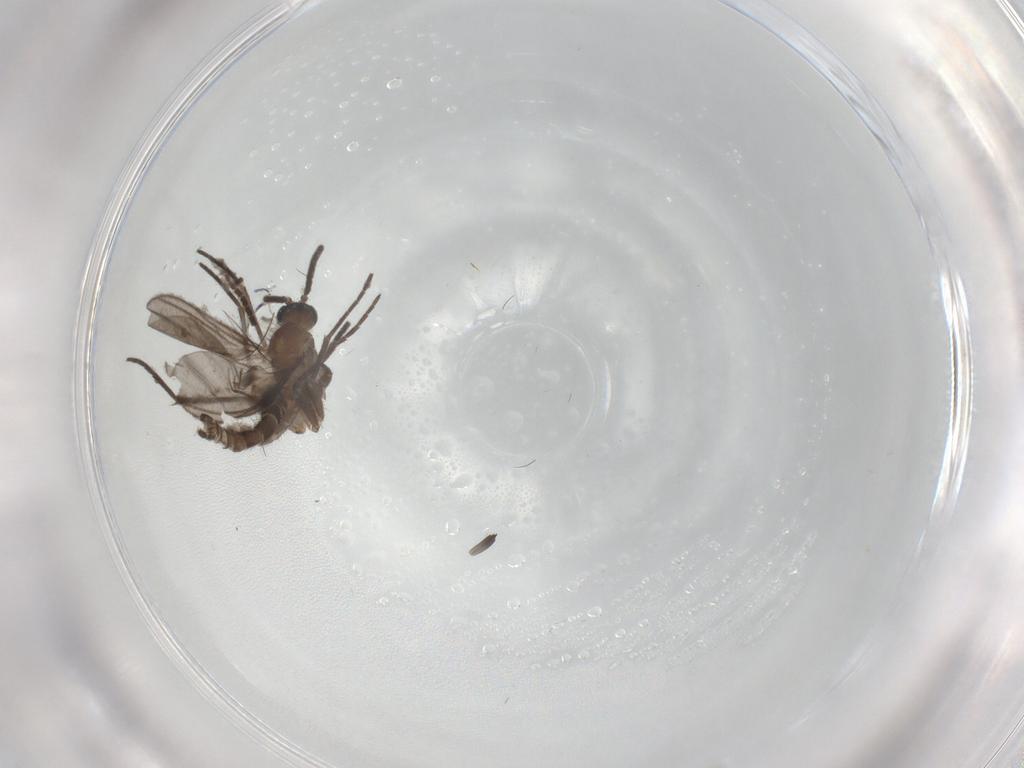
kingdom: Animalia
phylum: Arthropoda
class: Insecta
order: Diptera
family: Sciaridae
